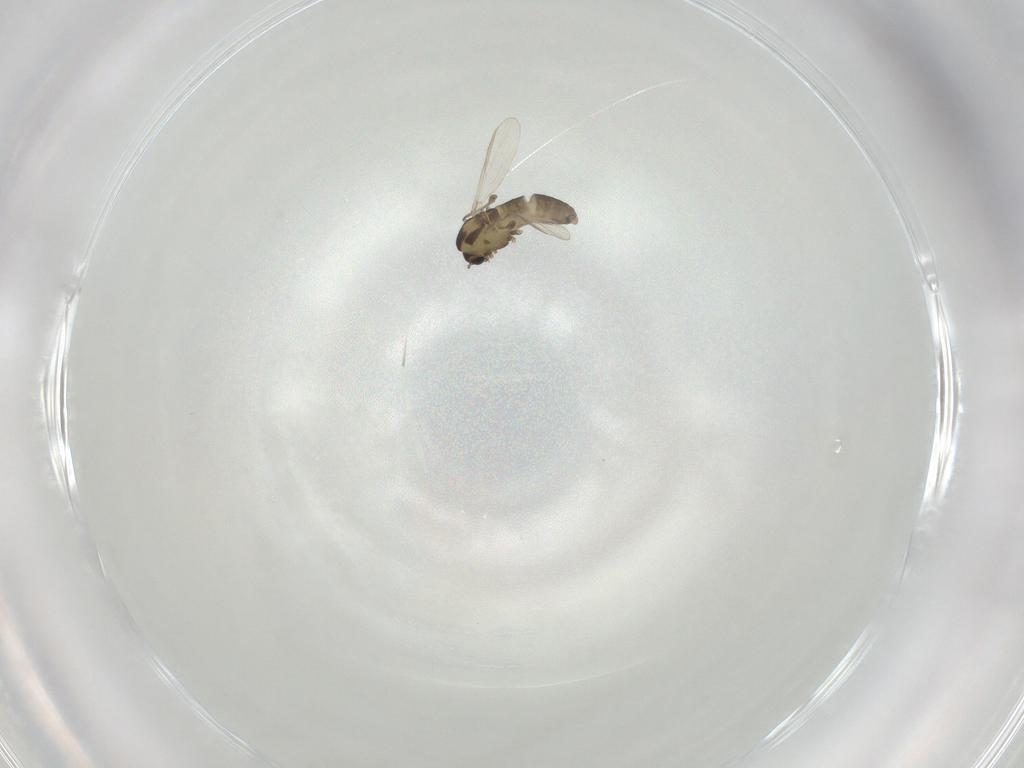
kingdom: Animalia
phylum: Arthropoda
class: Insecta
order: Diptera
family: Chironomidae
